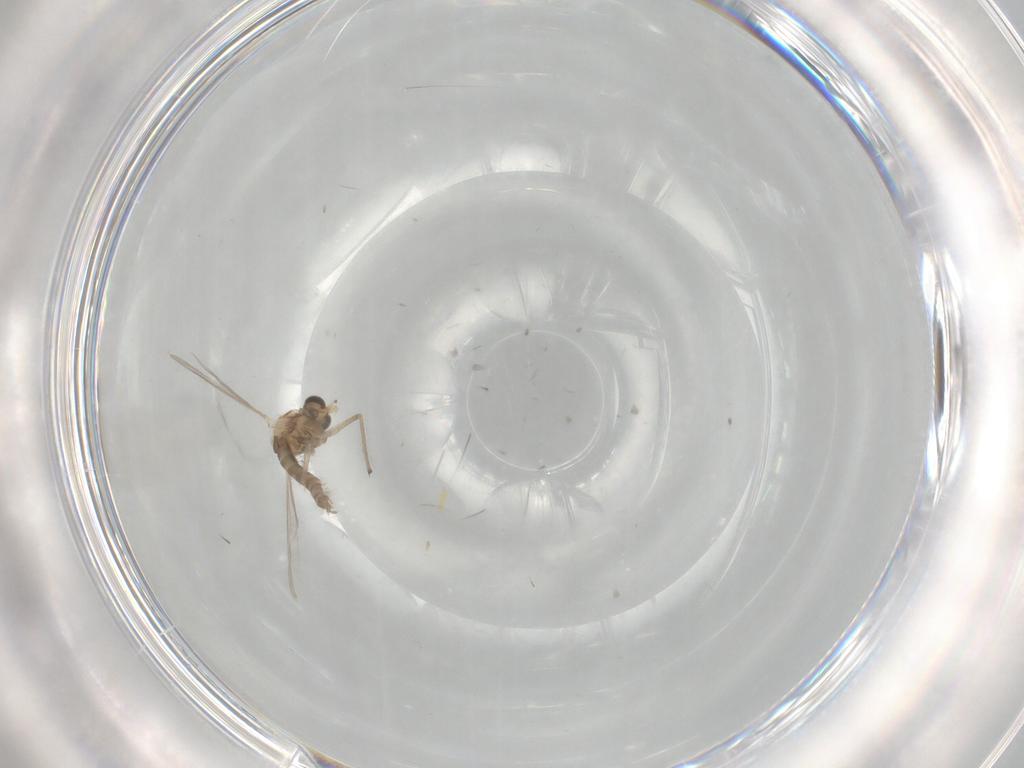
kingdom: Animalia
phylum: Arthropoda
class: Insecta
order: Diptera
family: Chironomidae
